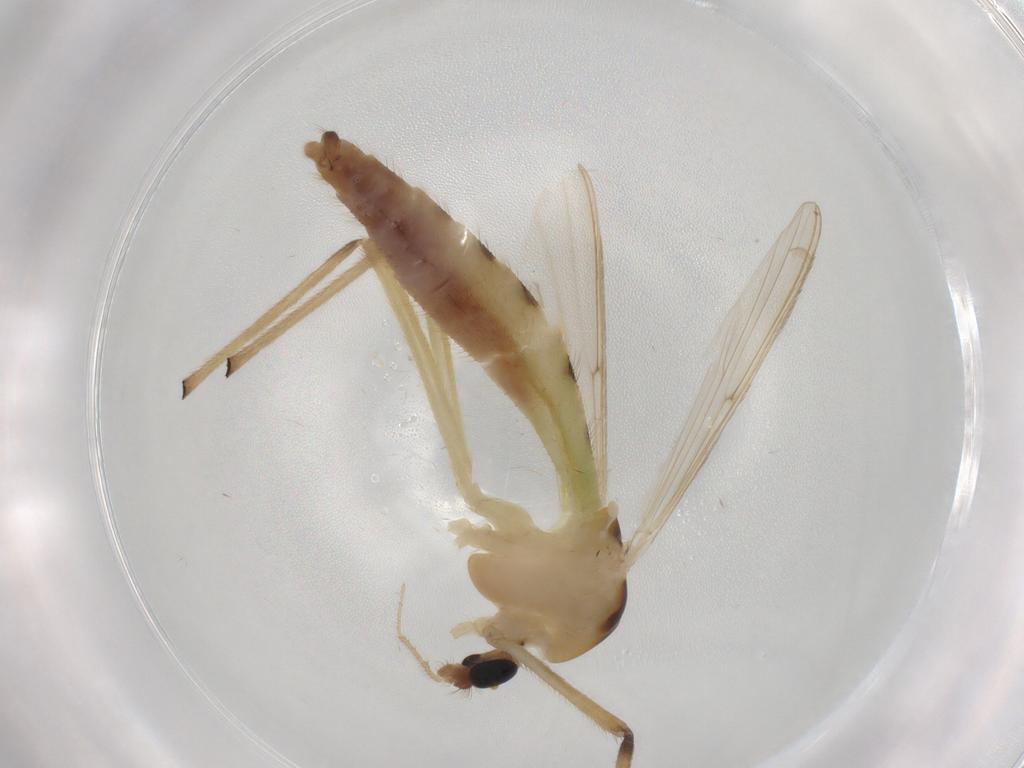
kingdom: Animalia
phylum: Arthropoda
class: Insecta
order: Diptera
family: Chironomidae
